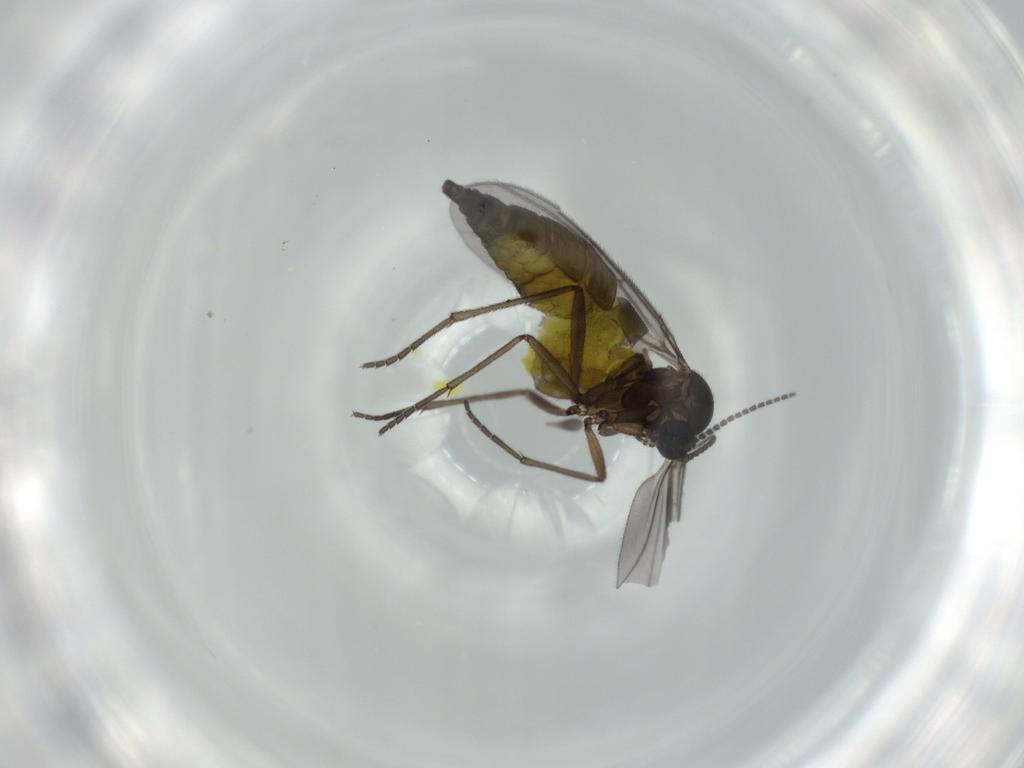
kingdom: Animalia
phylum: Arthropoda
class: Insecta
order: Diptera
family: Sciaridae
